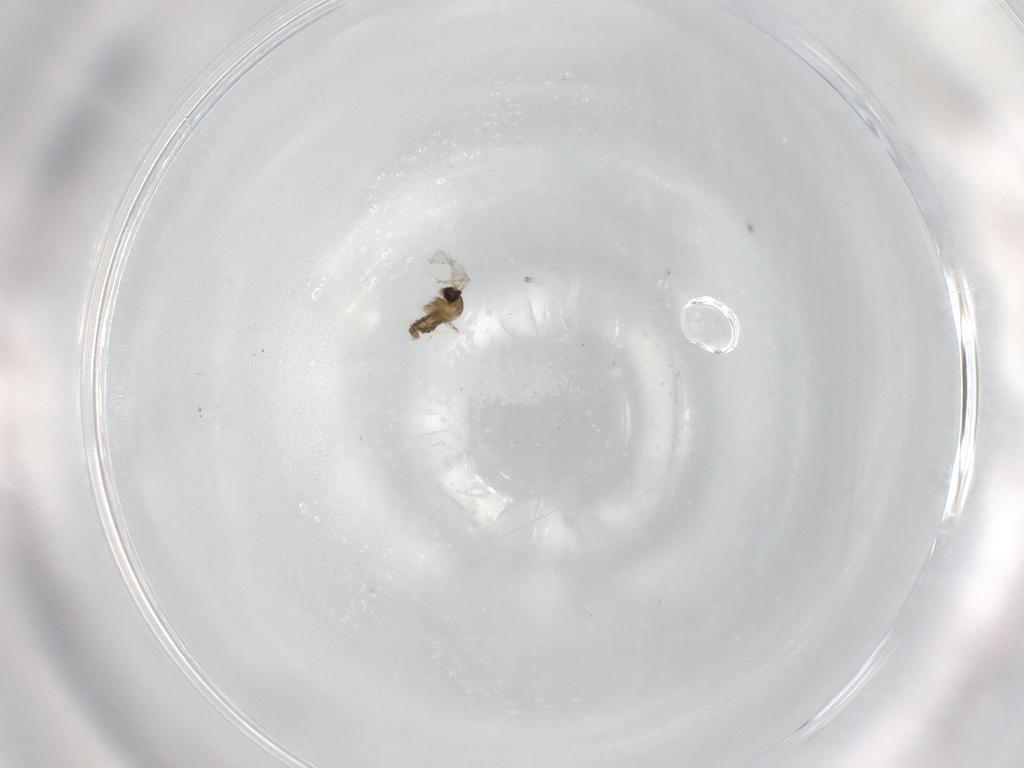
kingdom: Animalia
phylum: Arthropoda
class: Insecta
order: Diptera
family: Cecidomyiidae
